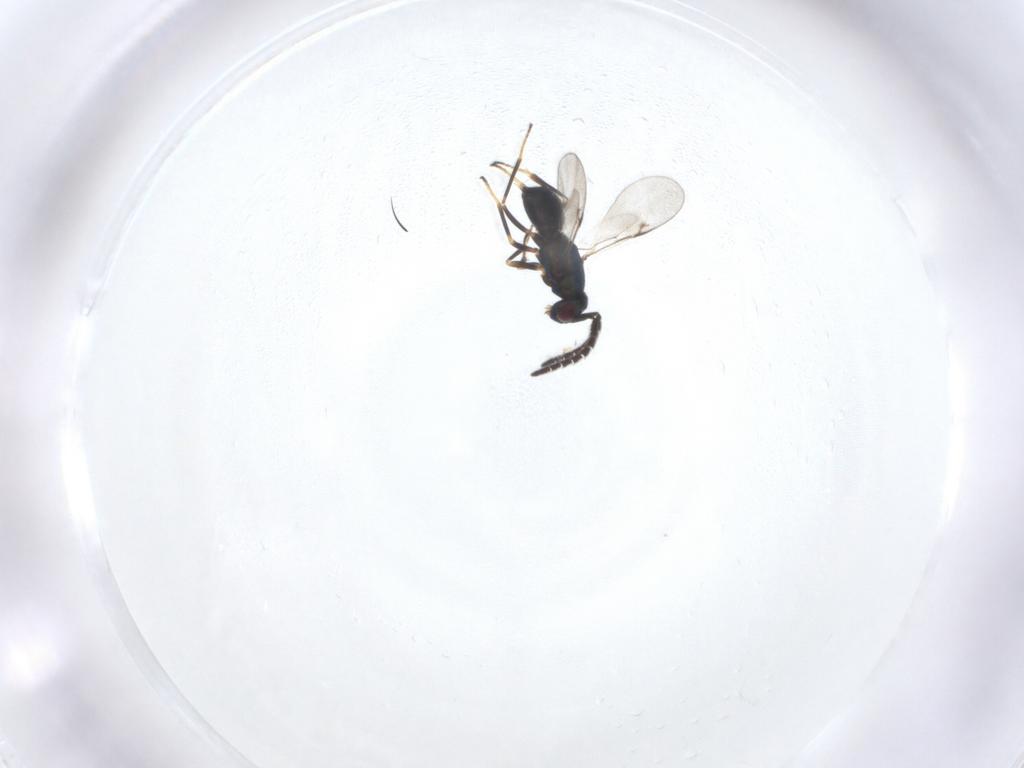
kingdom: Animalia
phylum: Arthropoda
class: Insecta
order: Hymenoptera
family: Encyrtidae
